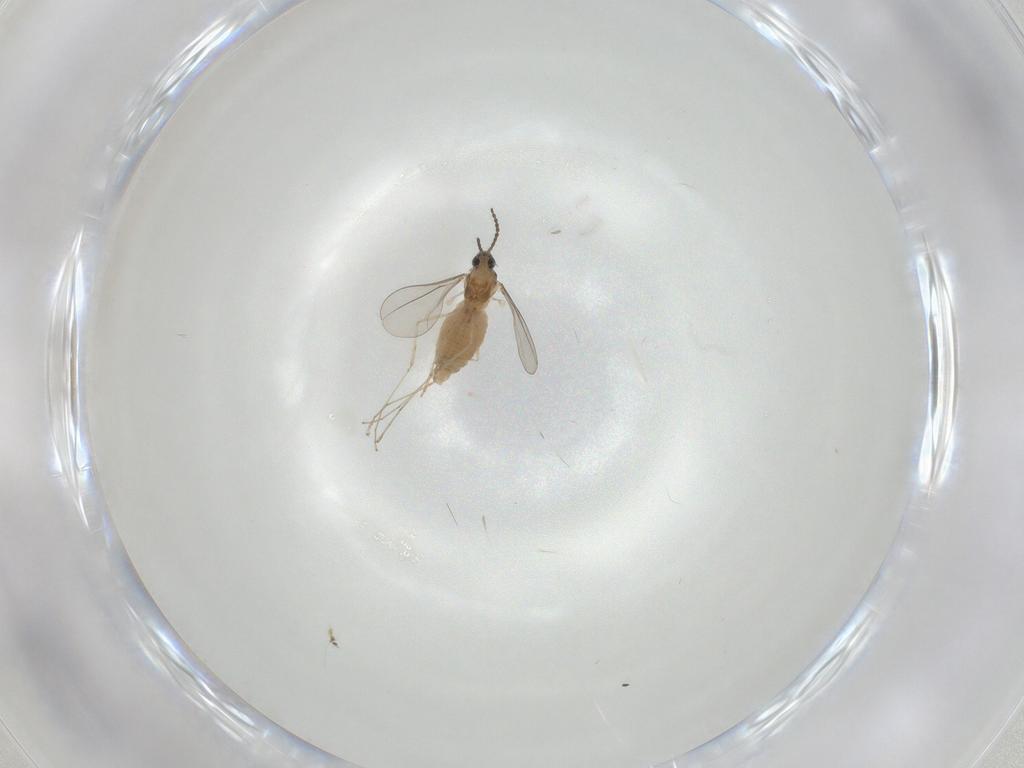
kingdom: Animalia
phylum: Arthropoda
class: Insecta
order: Diptera
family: Cecidomyiidae
